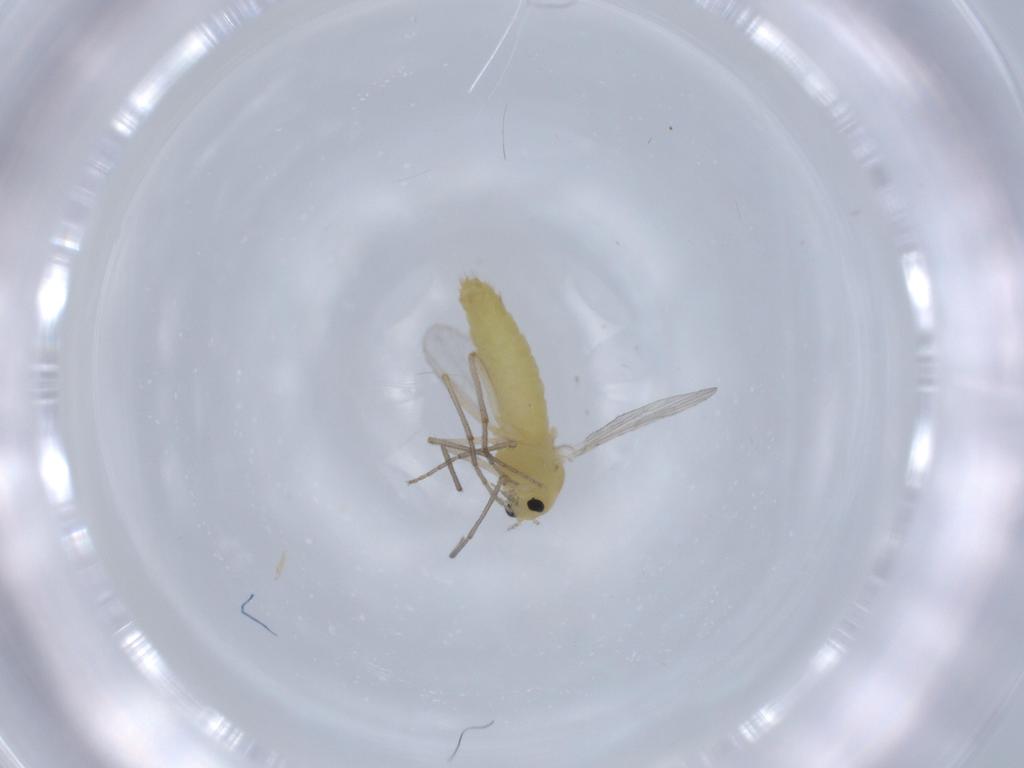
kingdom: Animalia
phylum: Arthropoda
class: Insecta
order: Diptera
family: Chironomidae
